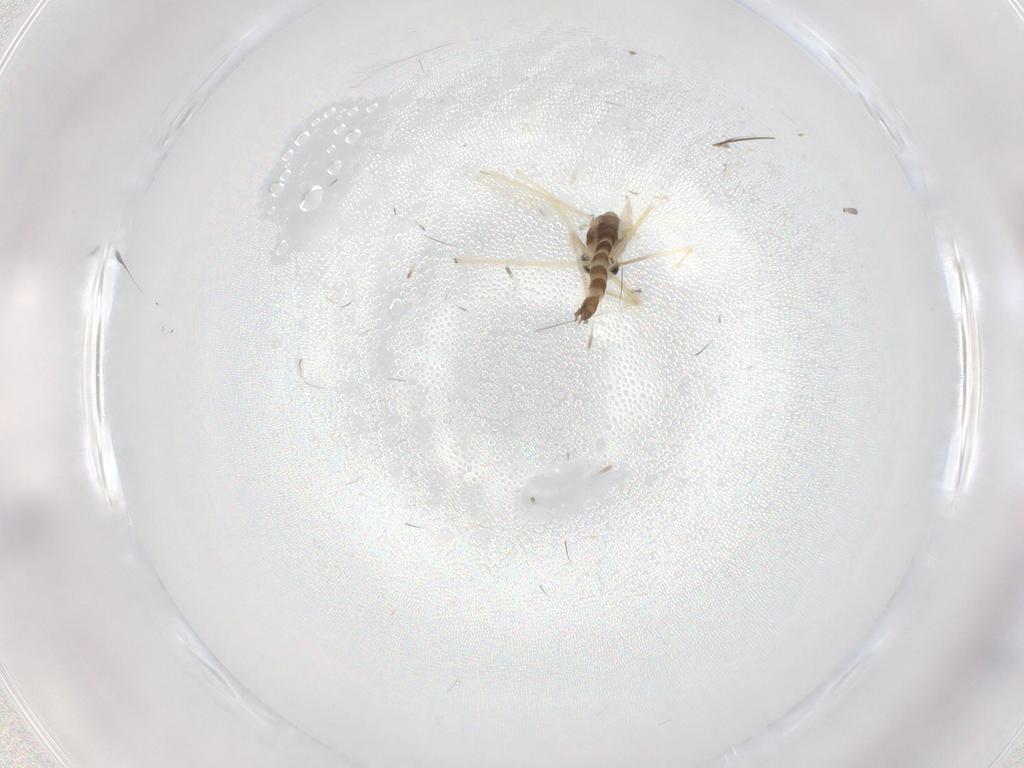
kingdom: Animalia
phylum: Arthropoda
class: Insecta
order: Diptera
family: Chironomidae
